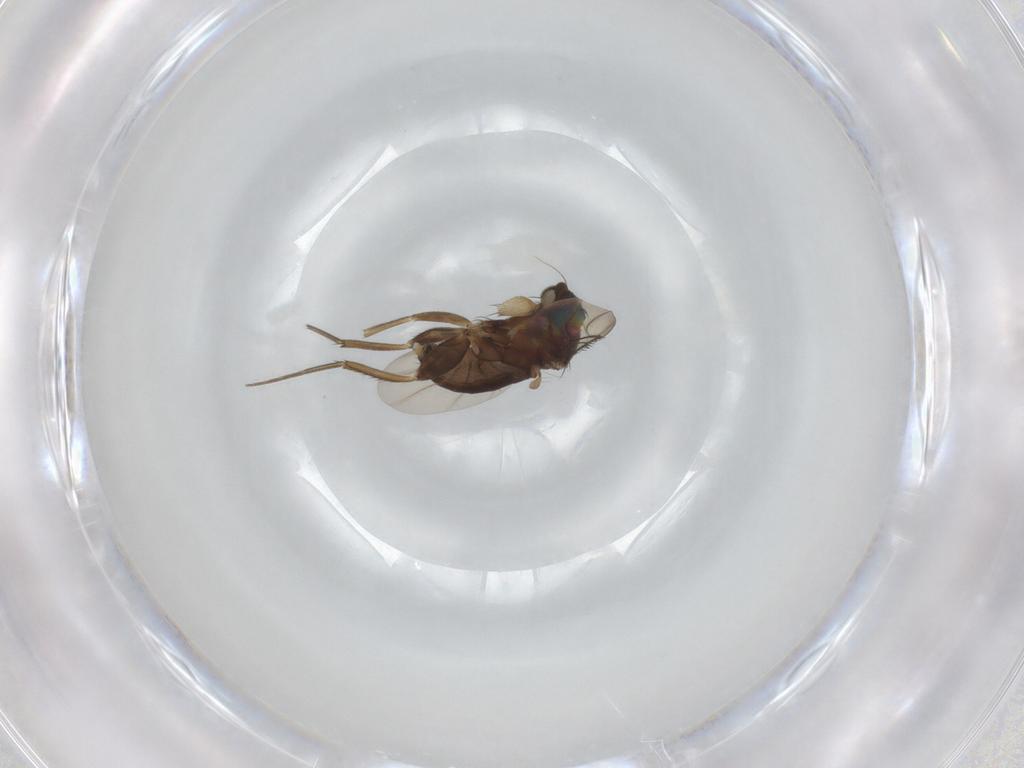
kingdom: Animalia
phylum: Arthropoda
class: Insecta
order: Diptera
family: Phoridae
